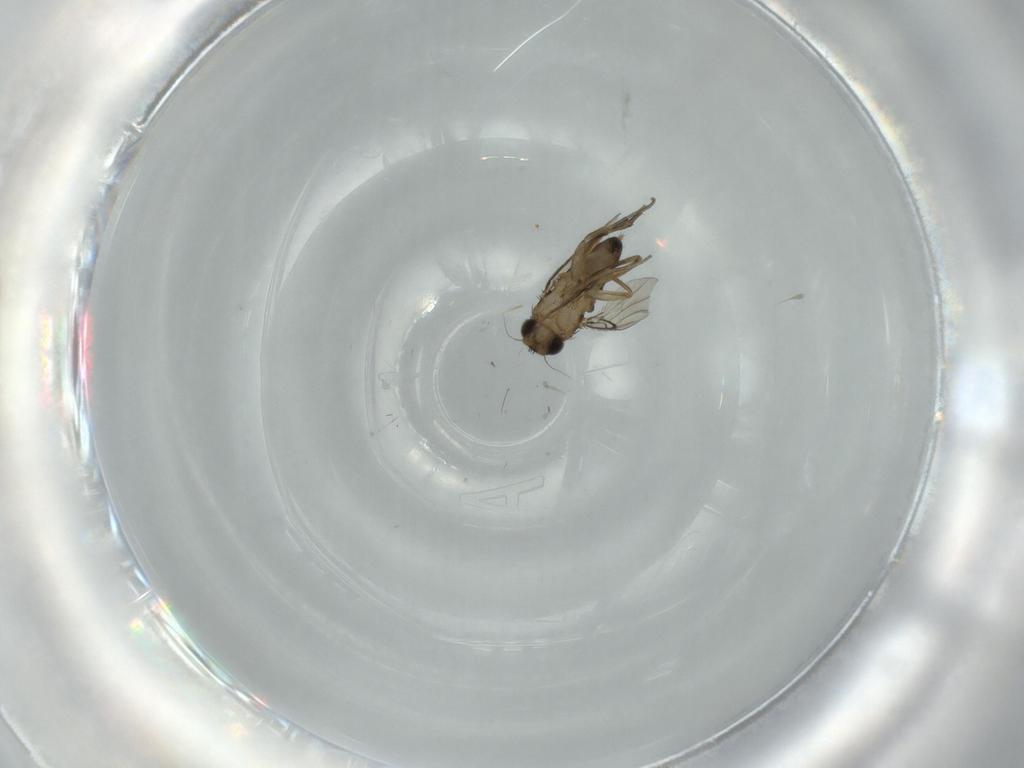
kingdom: Animalia
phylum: Arthropoda
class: Insecta
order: Diptera
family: Phoridae
